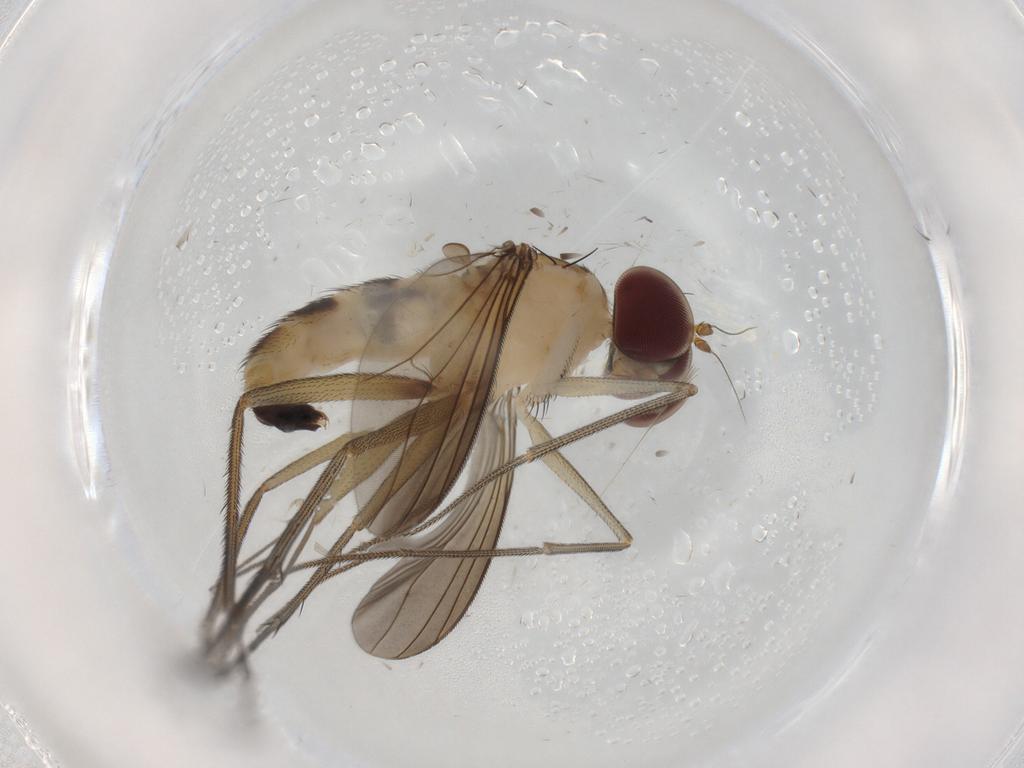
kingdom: Animalia
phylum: Arthropoda
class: Insecta
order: Diptera
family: Dolichopodidae
